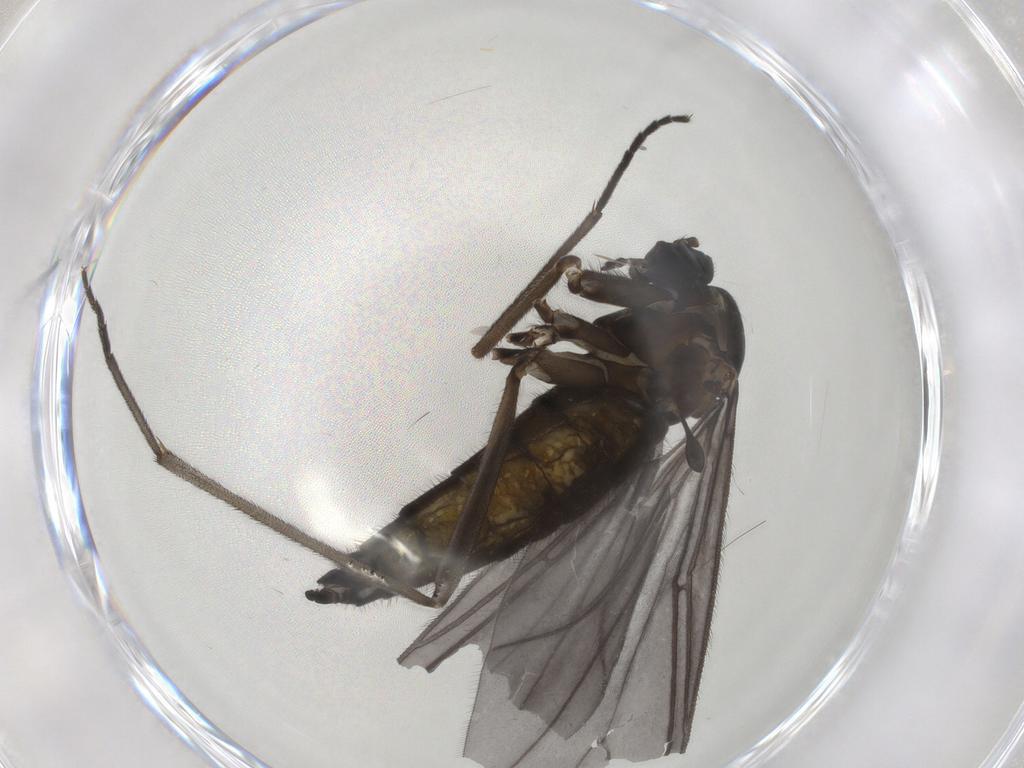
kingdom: Animalia
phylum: Arthropoda
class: Insecta
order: Diptera
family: Sciaridae
